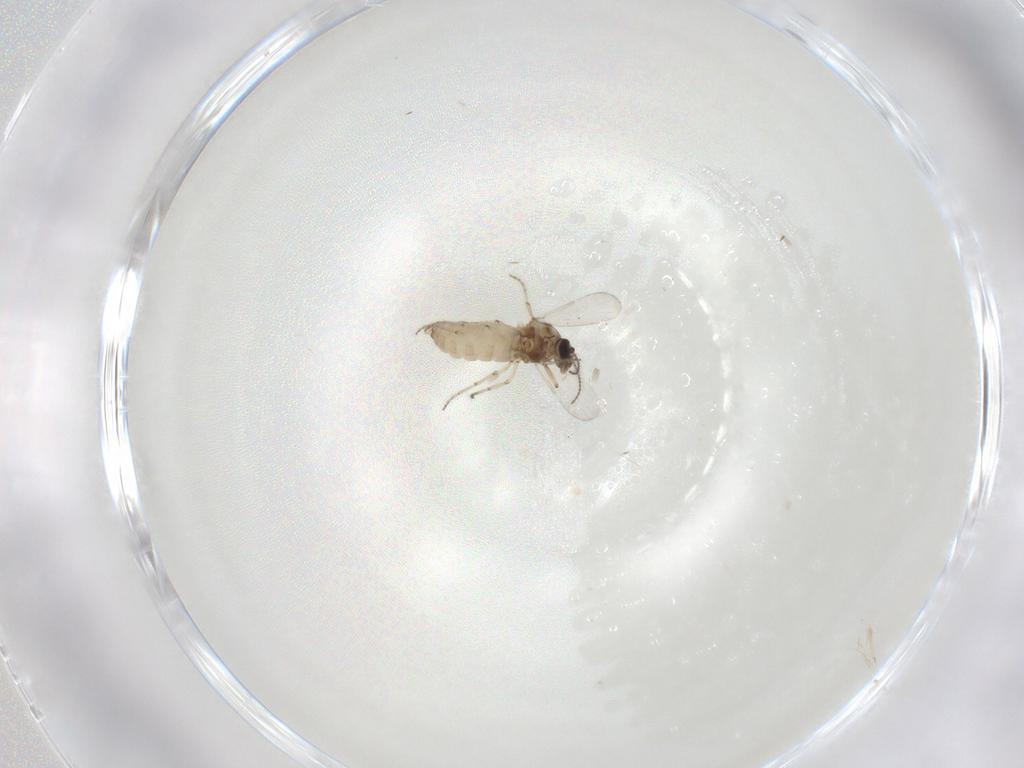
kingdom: Animalia
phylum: Arthropoda
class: Insecta
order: Diptera
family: Ceratopogonidae
